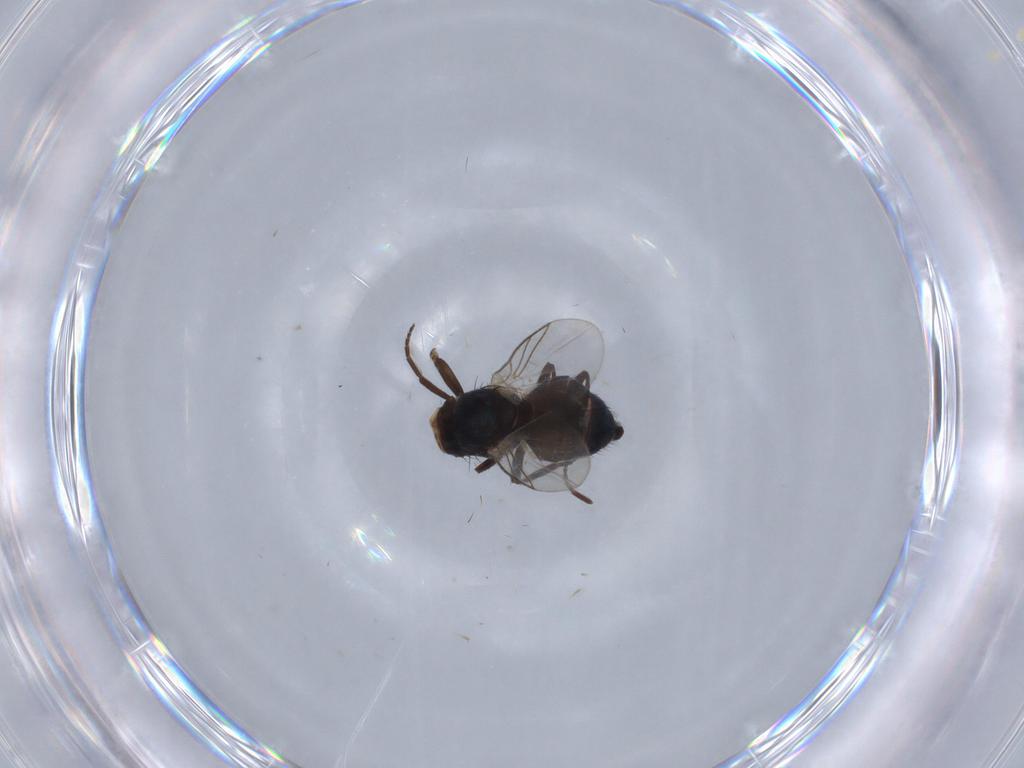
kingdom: Animalia
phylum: Arthropoda
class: Insecta
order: Diptera
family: Agromyzidae
